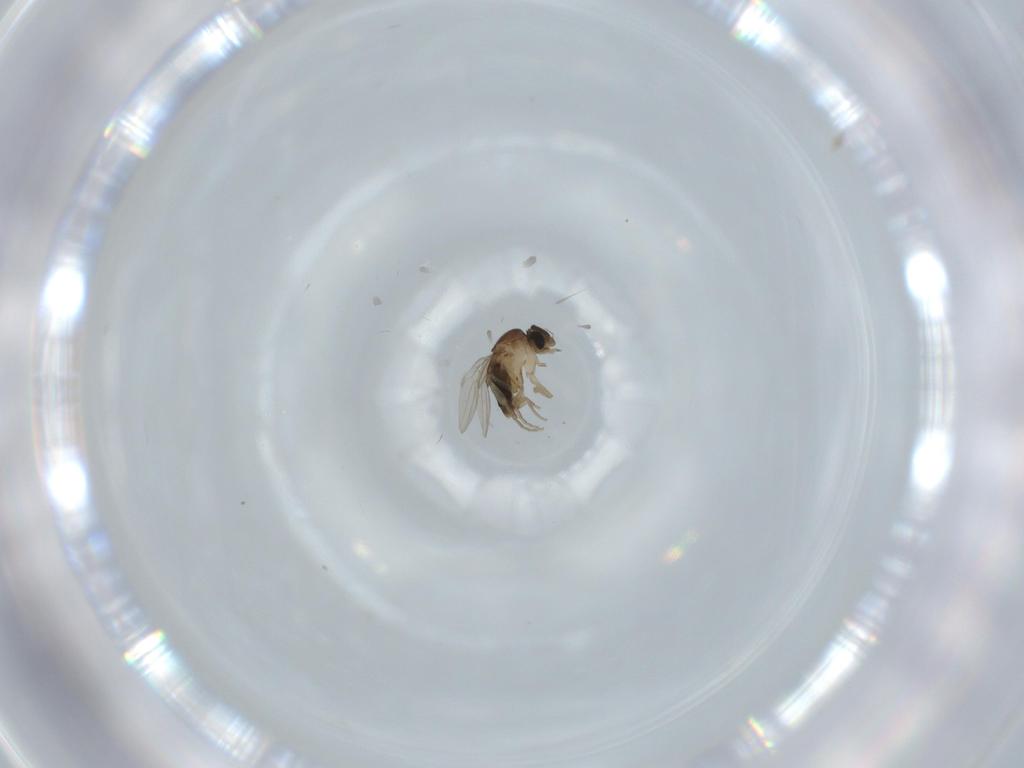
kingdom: Animalia
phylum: Arthropoda
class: Insecta
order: Diptera
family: Phoridae
